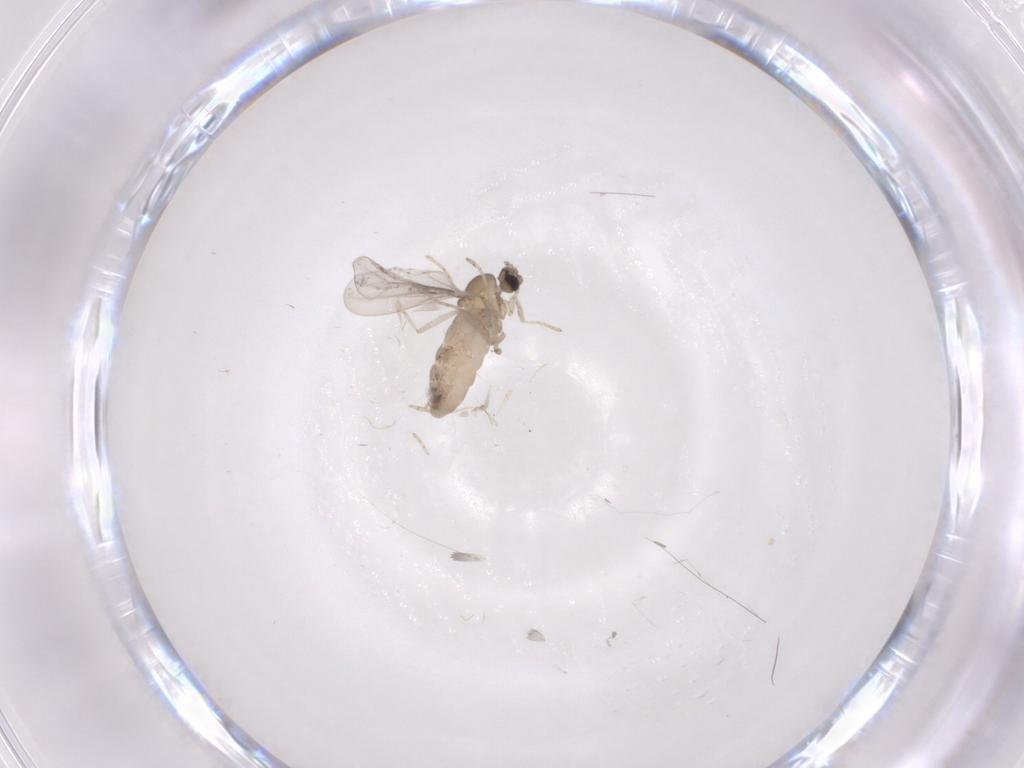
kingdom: Animalia
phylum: Arthropoda
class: Insecta
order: Diptera
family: Cecidomyiidae
